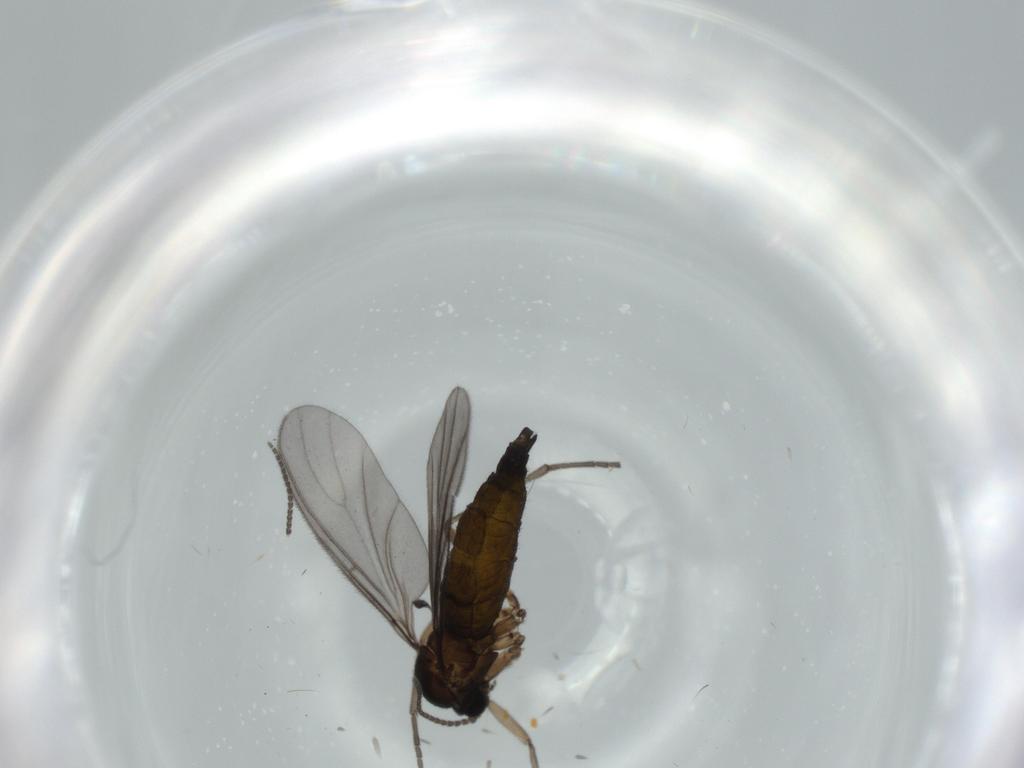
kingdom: Animalia
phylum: Arthropoda
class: Insecta
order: Diptera
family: Sciaridae
